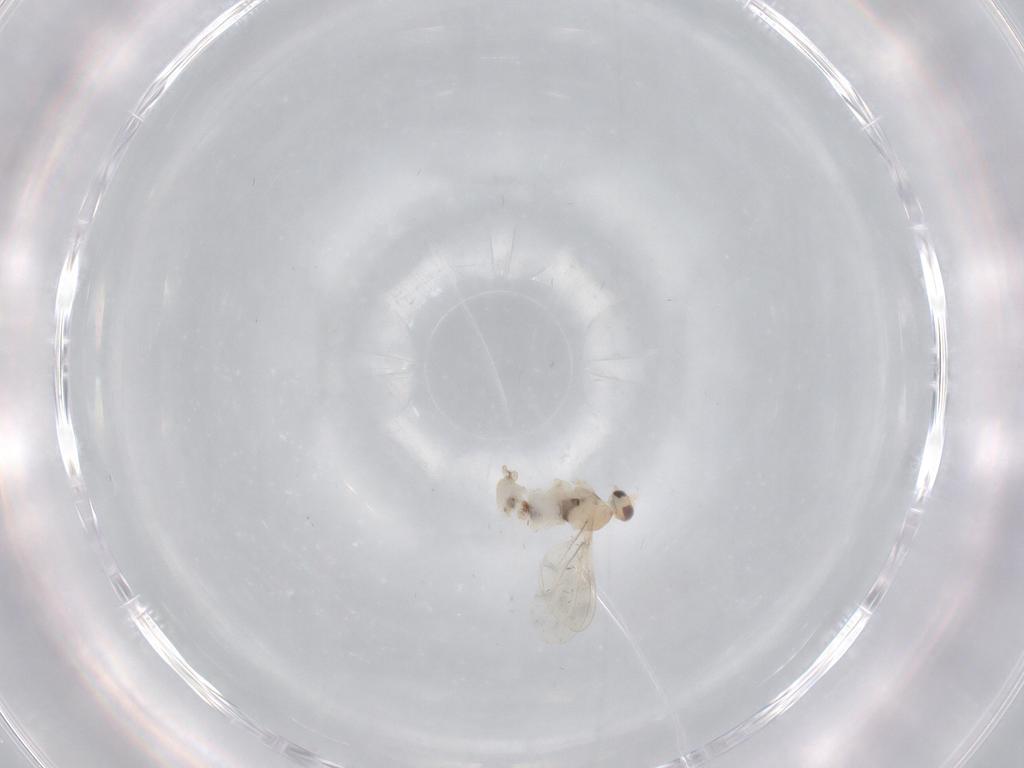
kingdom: Animalia
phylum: Arthropoda
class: Insecta
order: Diptera
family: Cecidomyiidae
